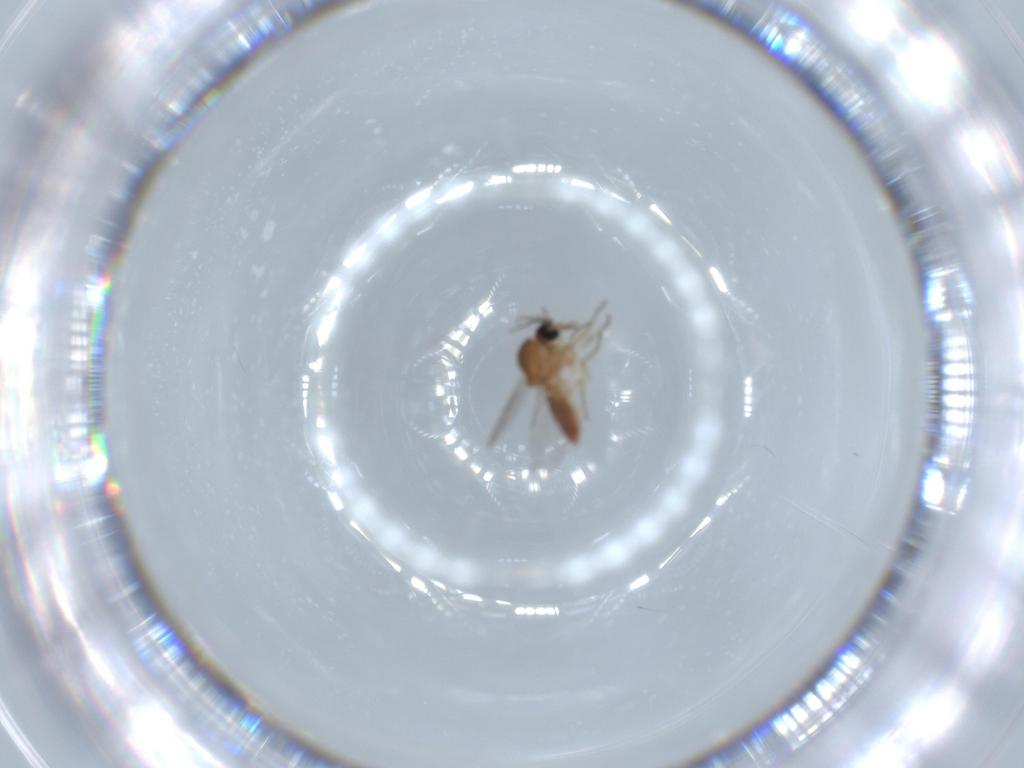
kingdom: Animalia
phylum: Arthropoda
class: Insecta
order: Diptera
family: Ceratopogonidae
